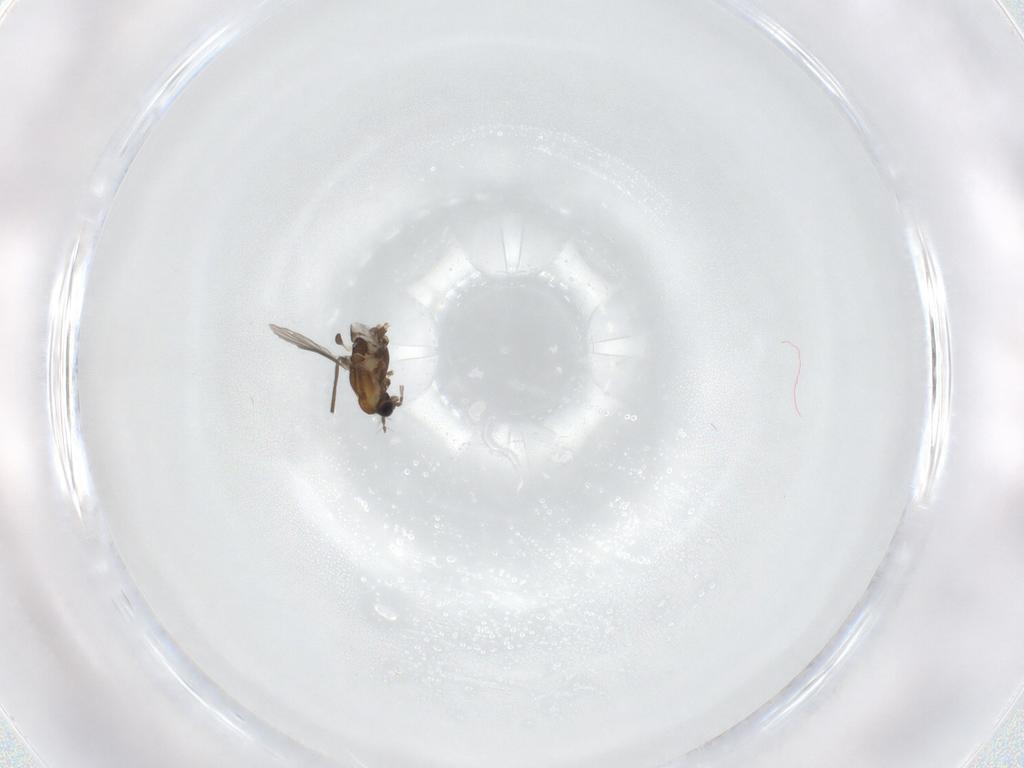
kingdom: Animalia
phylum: Arthropoda
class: Insecta
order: Diptera
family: Chironomidae
